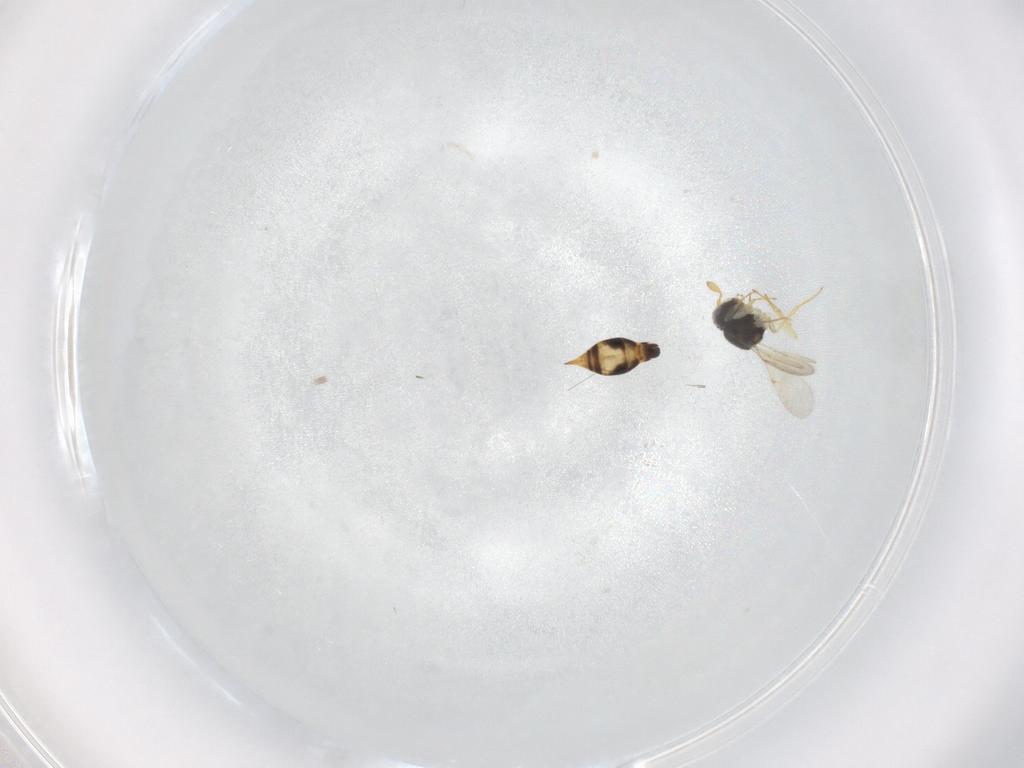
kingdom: Animalia
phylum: Arthropoda
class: Insecta
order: Hymenoptera
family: Scelionidae
